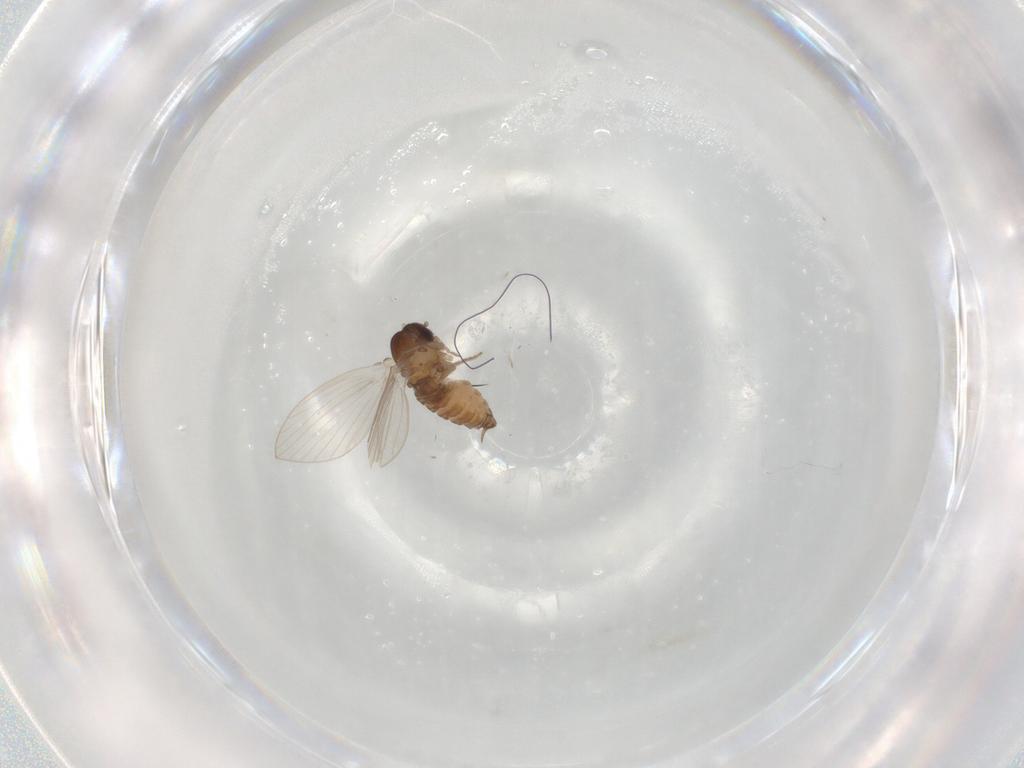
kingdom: Animalia
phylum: Arthropoda
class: Insecta
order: Diptera
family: Psychodidae
